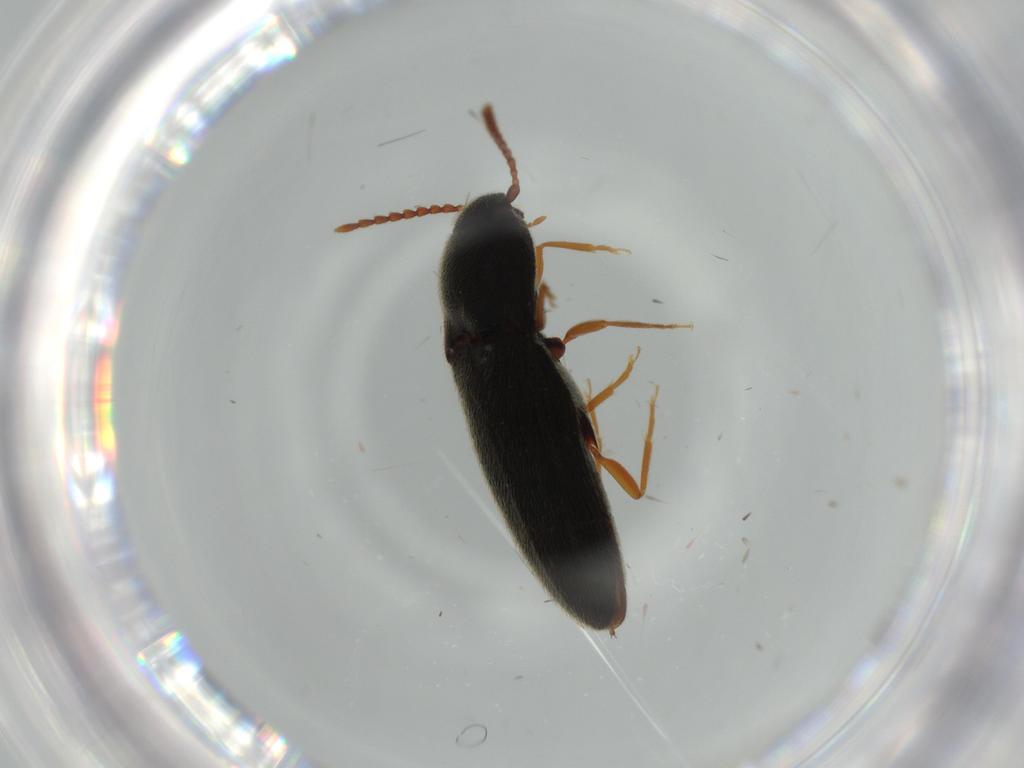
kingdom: Animalia
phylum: Arthropoda
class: Insecta
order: Coleoptera
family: Elateridae
